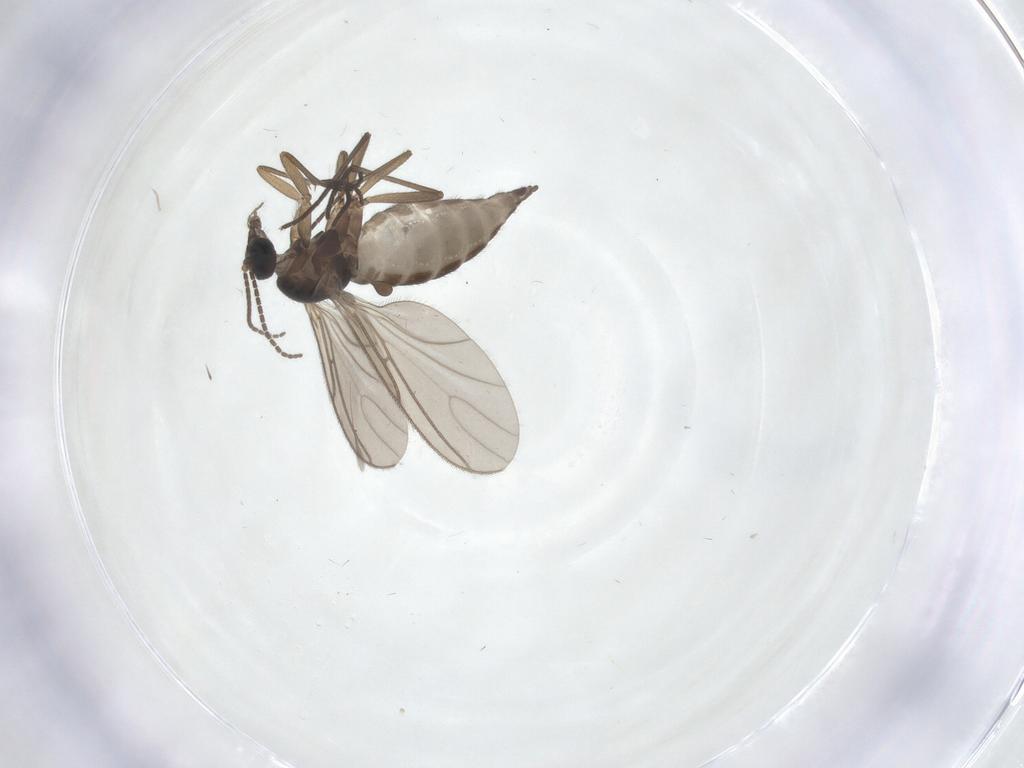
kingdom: Animalia
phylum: Arthropoda
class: Insecta
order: Diptera
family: Sciaridae
